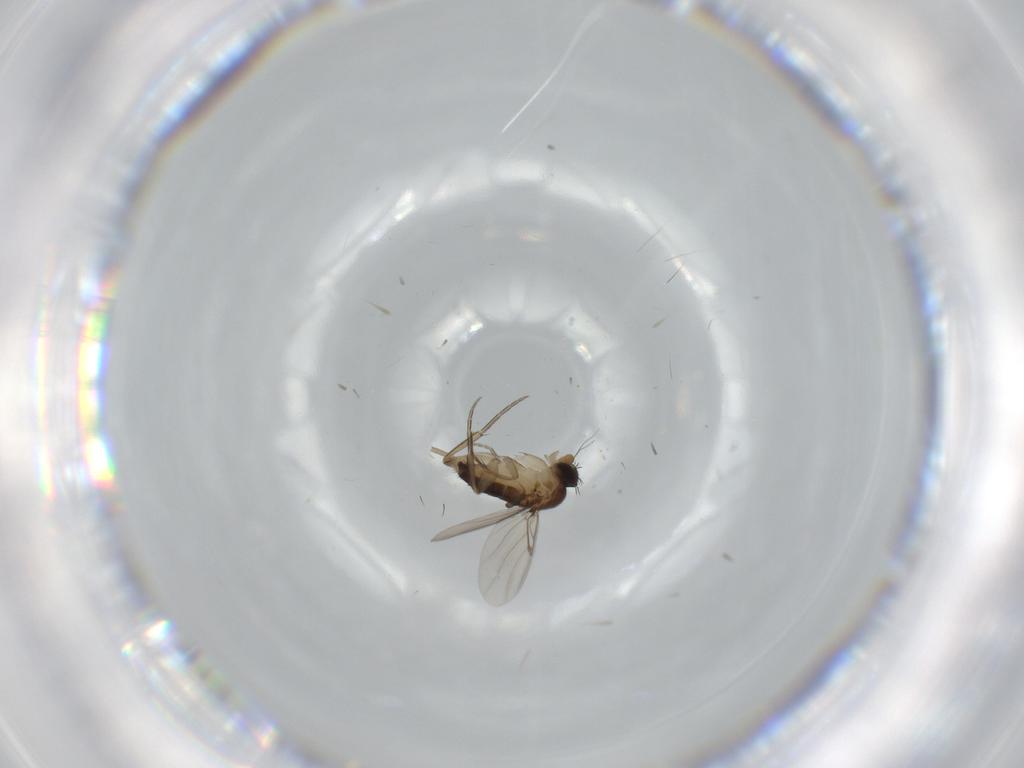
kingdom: Animalia
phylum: Arthropoda
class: Insecta
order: Diptera
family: Phoridae
